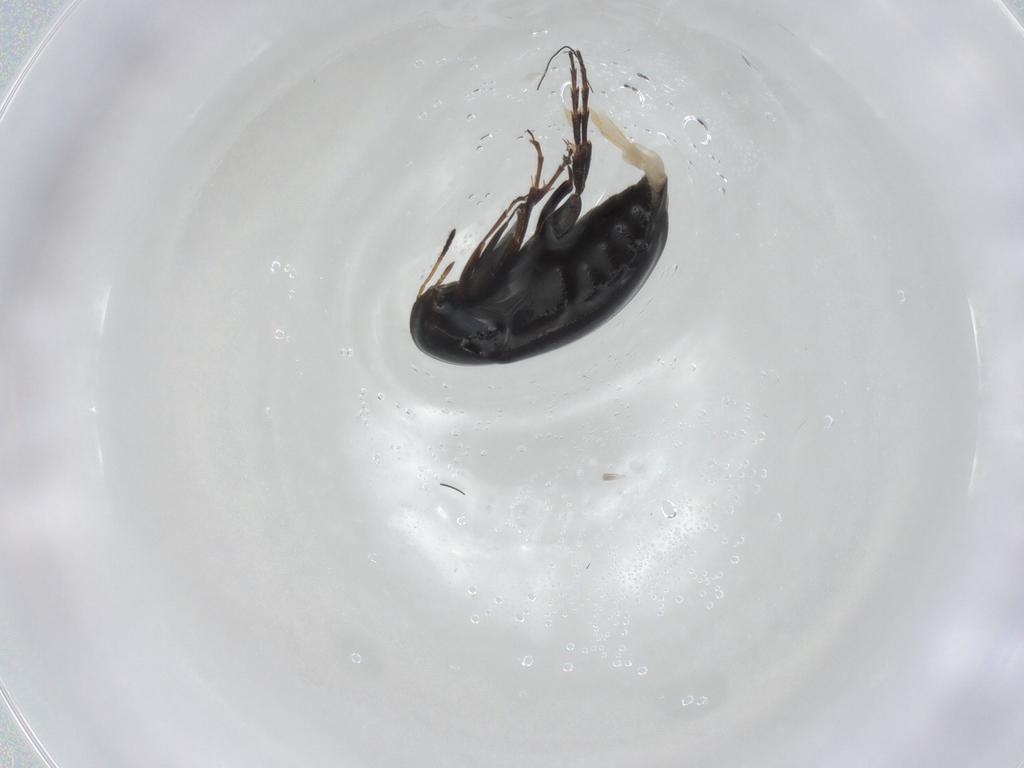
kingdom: Animalia
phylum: Arthropoda
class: Insecta
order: Coleoptera
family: Scraptiidae
